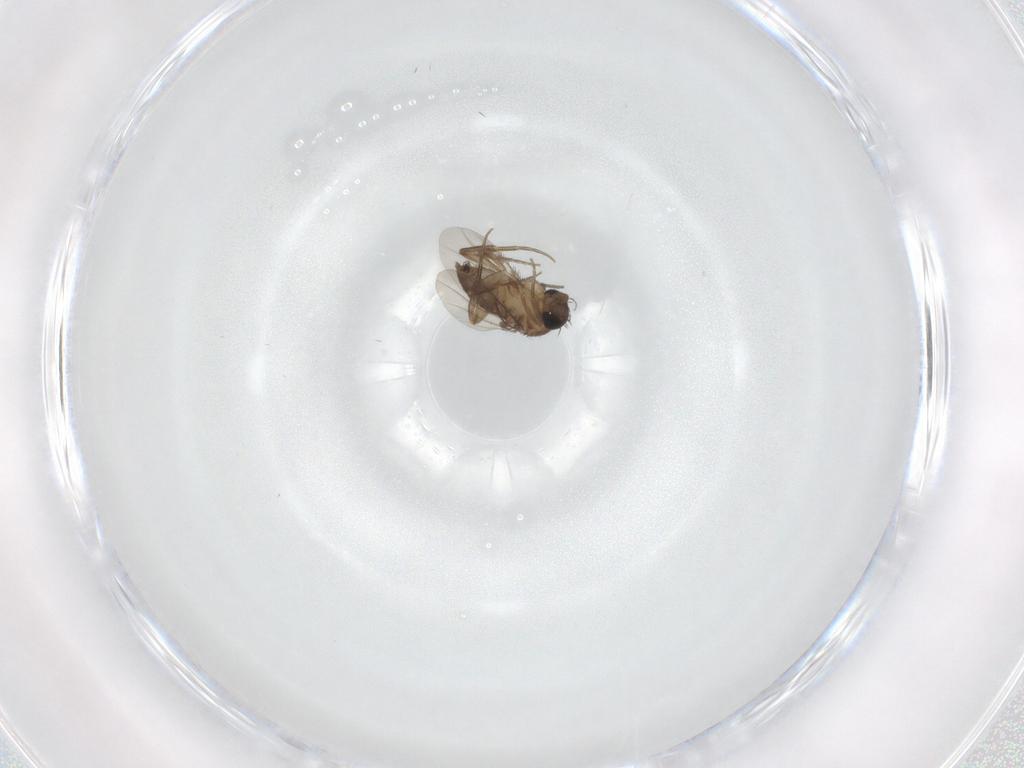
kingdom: Animalia
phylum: Arthropoda
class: Insecta
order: Diptera
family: Phoridae
